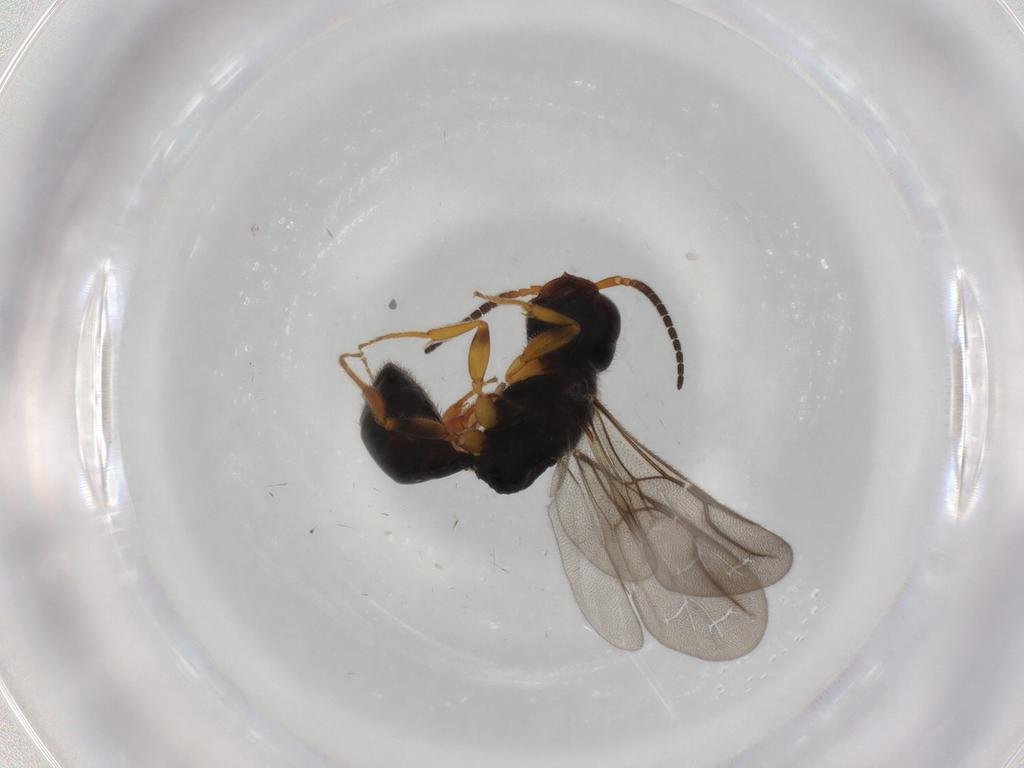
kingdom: Animalia
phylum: Arthropoda
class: Insecta
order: Hymenoptera
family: Bethylidae
